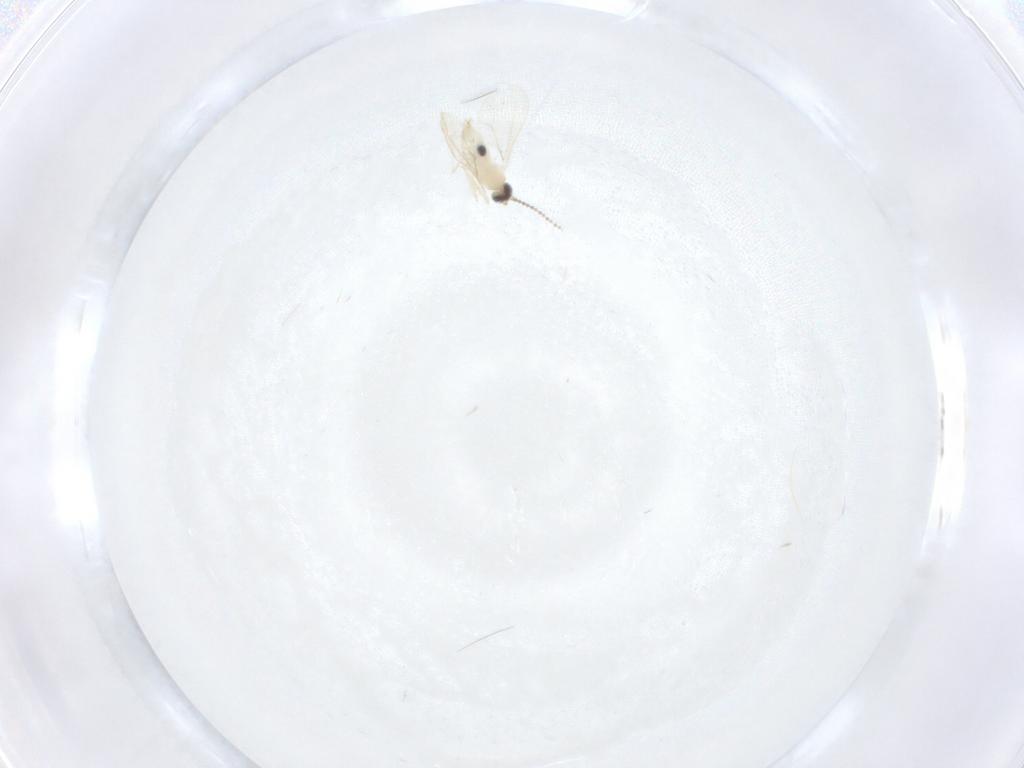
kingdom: Animalia
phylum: Arthropoda
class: Insecta
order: Diptera
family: Cecidomyiidae
